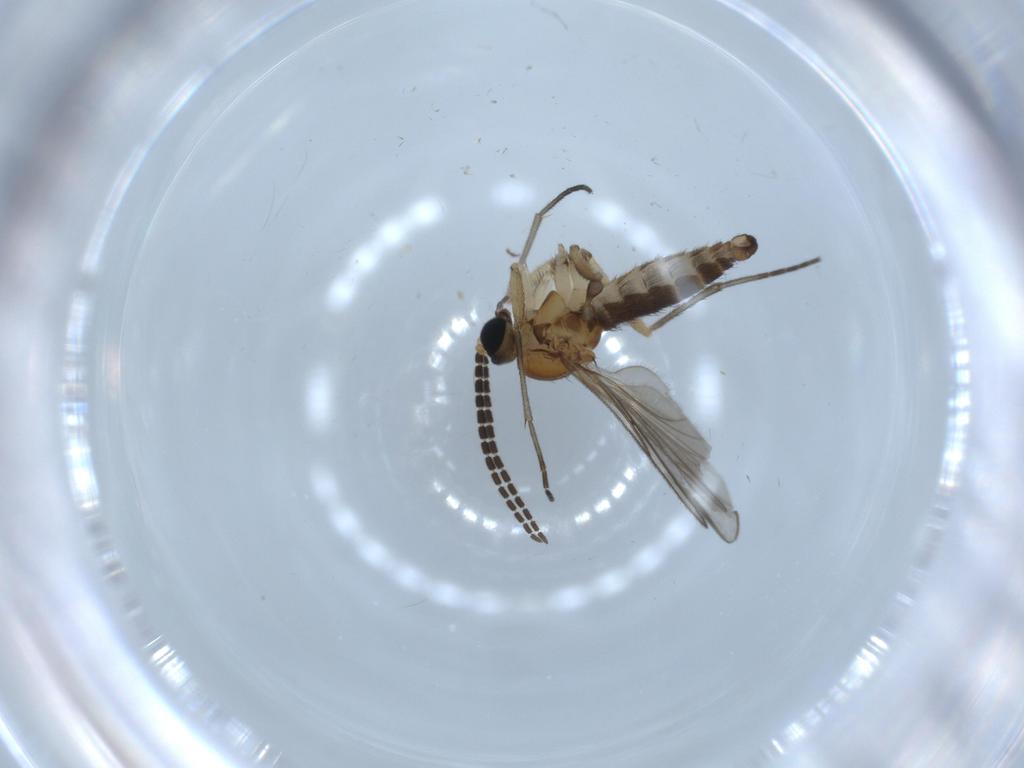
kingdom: Animalia
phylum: Arthropoda
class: Insecta
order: Diptera
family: Sciaridae
